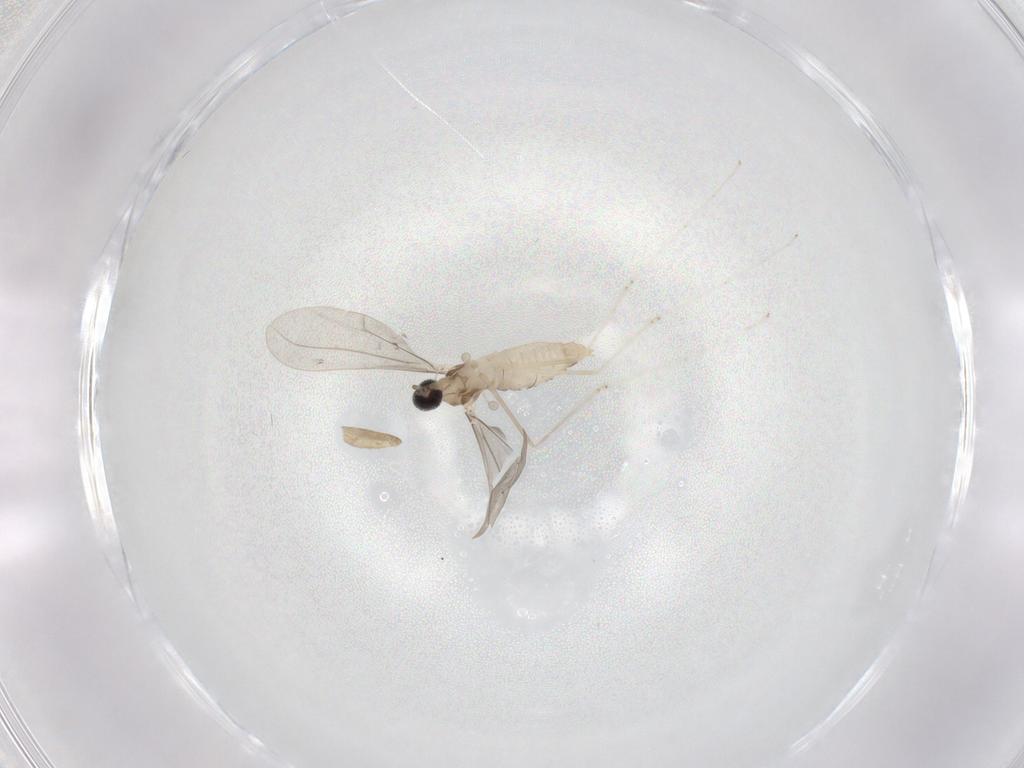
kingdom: Animalia
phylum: Arthropoda
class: Insecta
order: Diptera
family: Cecidomyiidae
